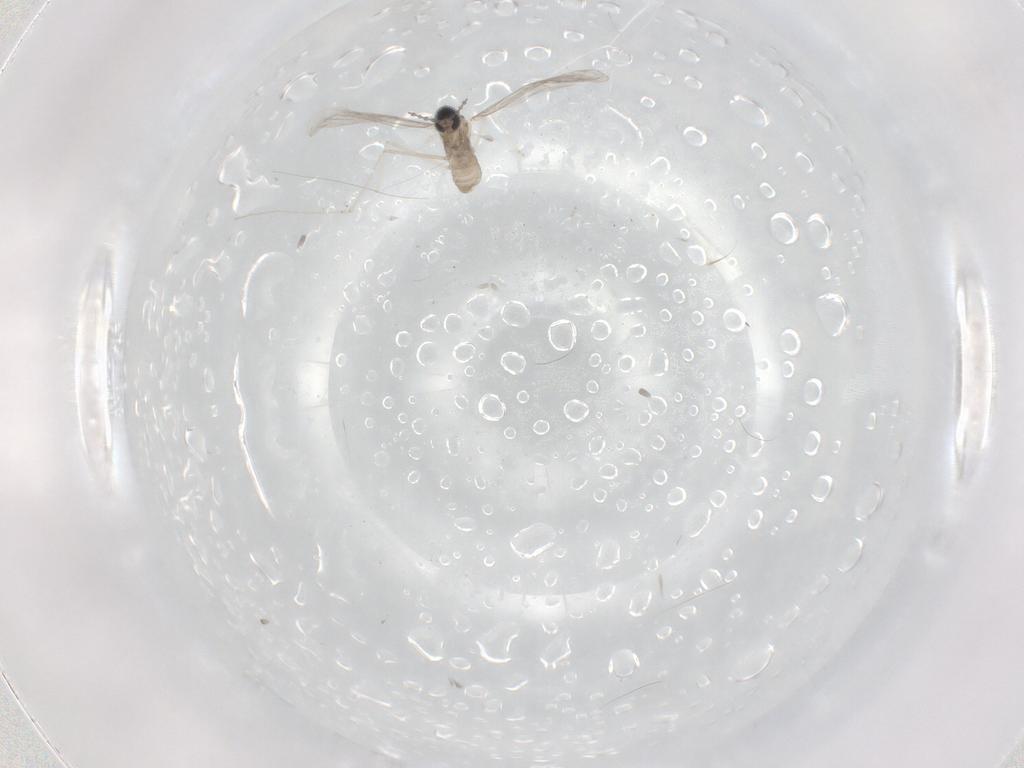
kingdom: Animalia
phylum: Arthropoda
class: Insecta
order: Diptera
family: Cecidomyiidae
